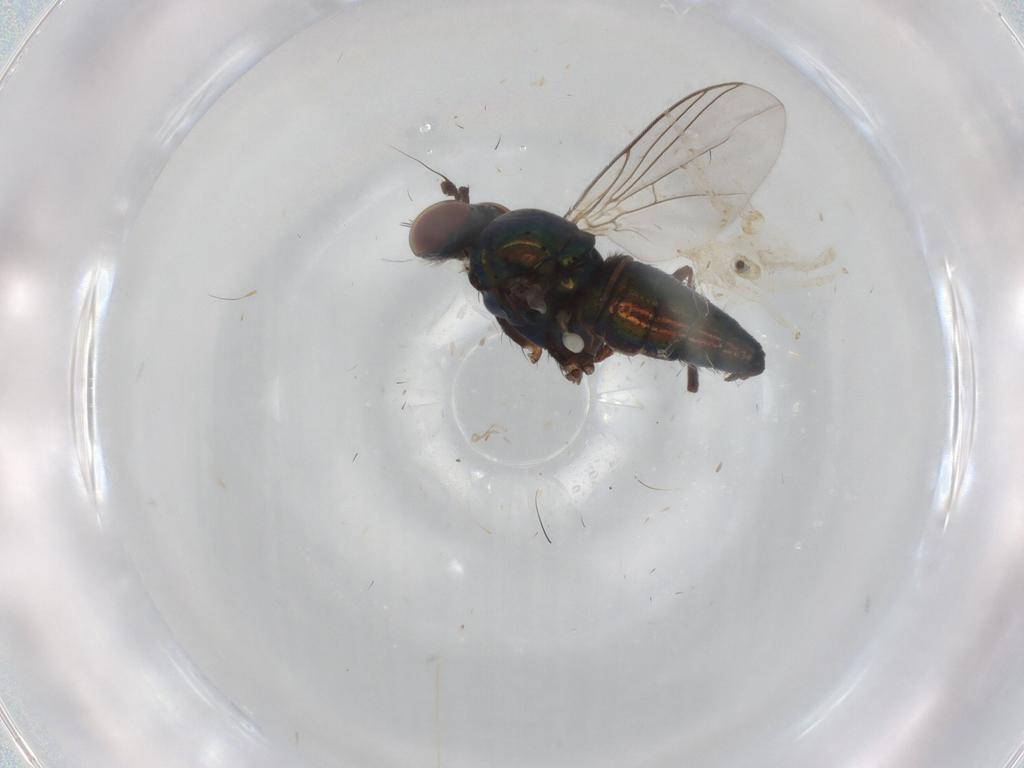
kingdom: Animalia
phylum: Arthropoda
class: Insecta
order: Diptera
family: Dolichopodidae
